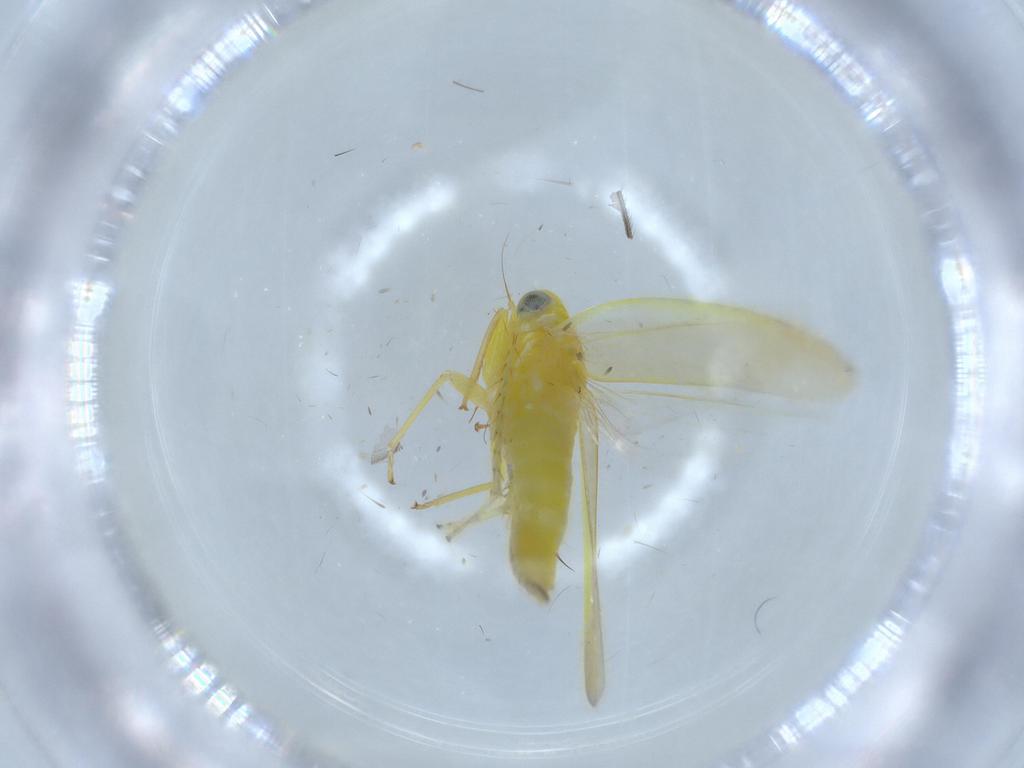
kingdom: Animalia
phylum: Arthropoda
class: Insecta
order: Hemiptera
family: Cicadellidae
